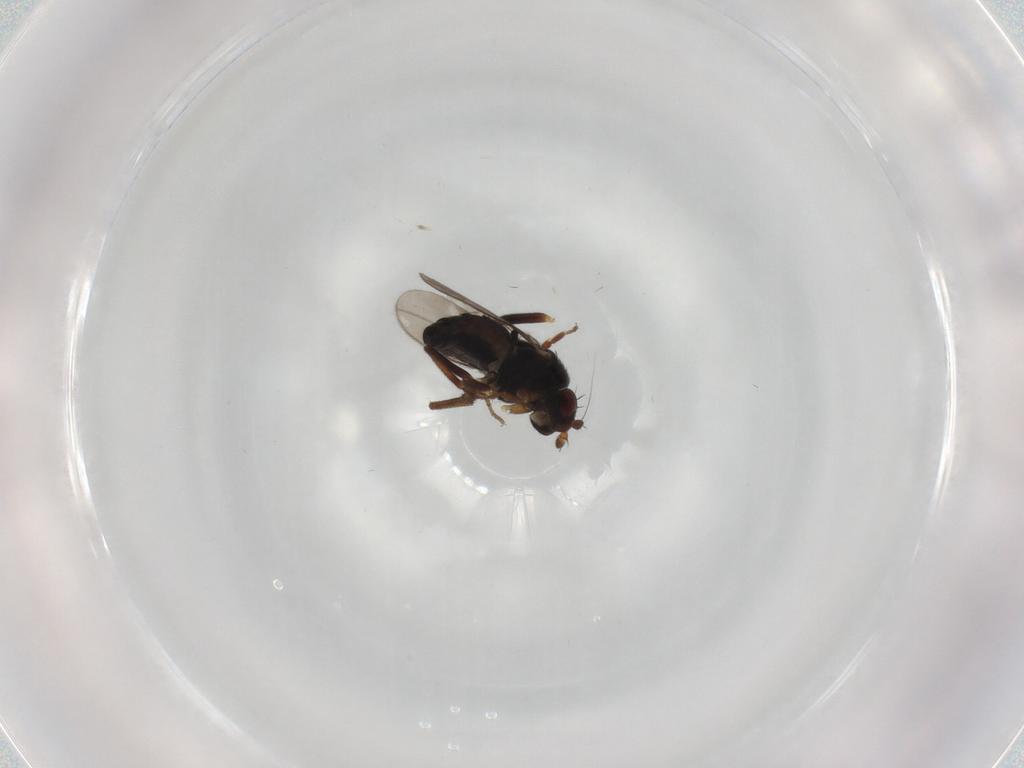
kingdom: Animalia
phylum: Arthropoda
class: Insecta
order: Diptera
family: Sphaeroceridae
